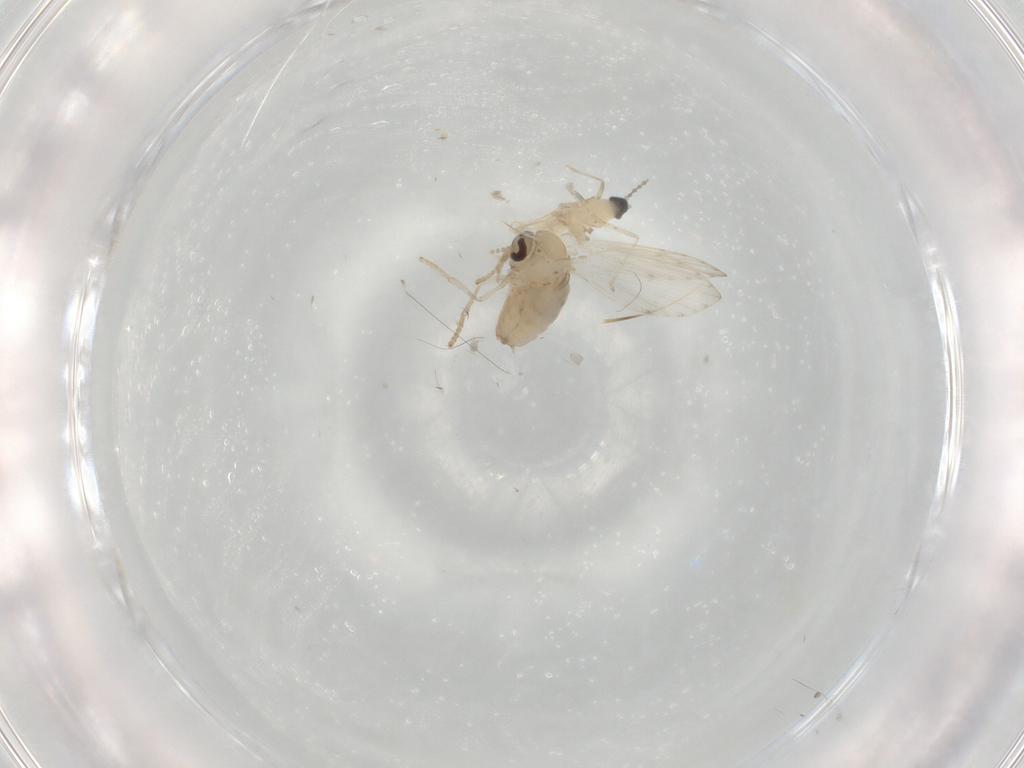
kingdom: Animalia
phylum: Arthropoda
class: Insecta
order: Diptera
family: Psychodidae
